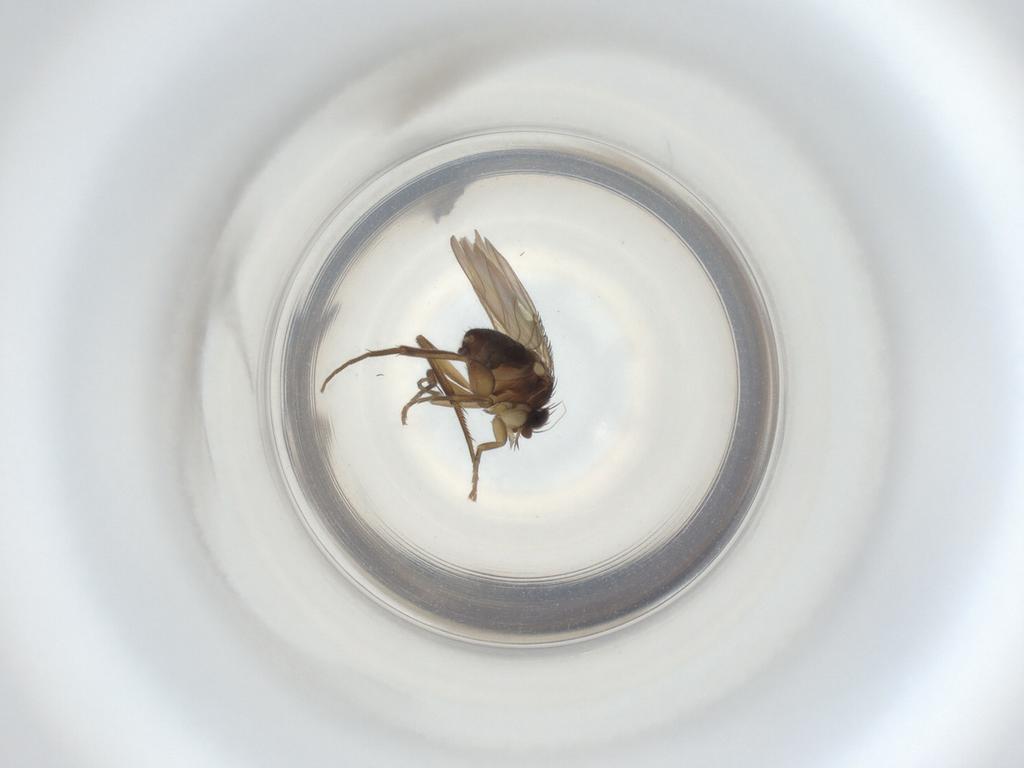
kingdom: Animalia
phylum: Arthropoda
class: Insecta
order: Diptera
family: Phoridae
